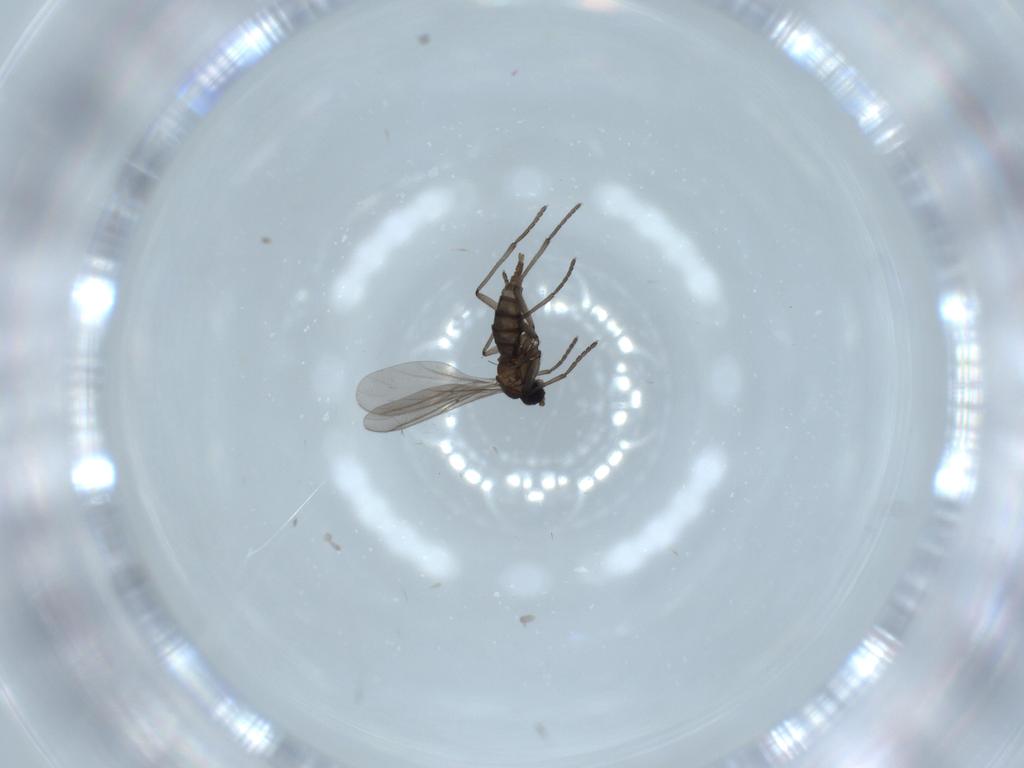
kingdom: Animalia
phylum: Arthropoda
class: Insecta
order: Diptera
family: Sciaridae
